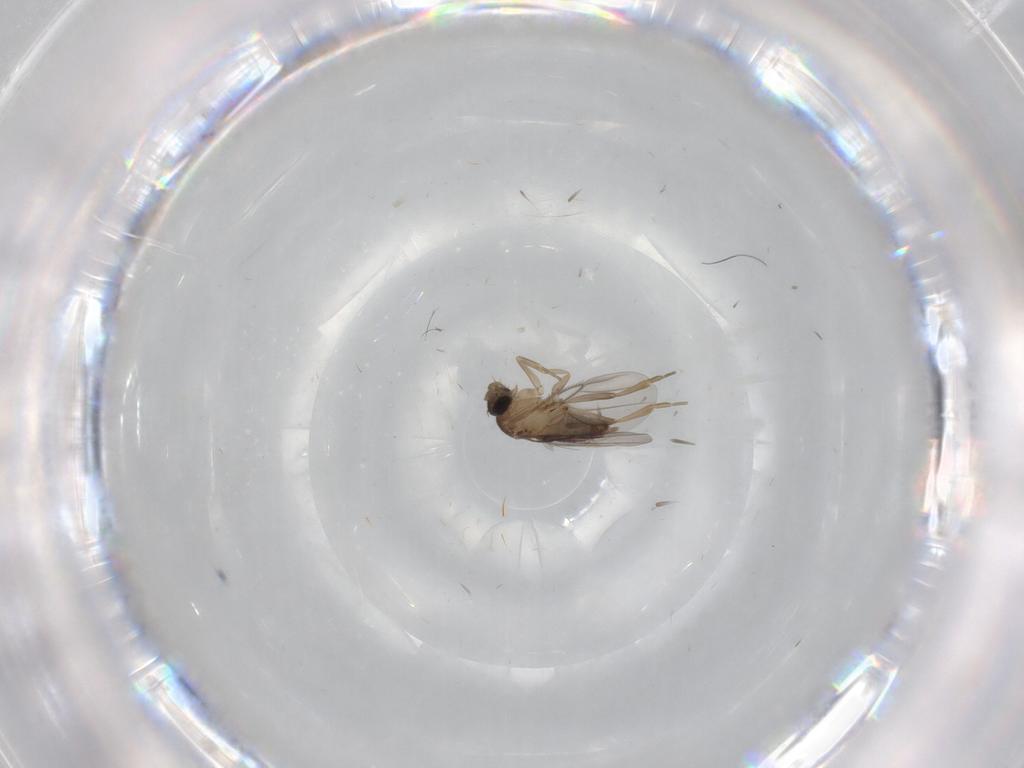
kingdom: Animalia
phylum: Arthropoda
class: Insecta
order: Diptera
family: Phoridae
